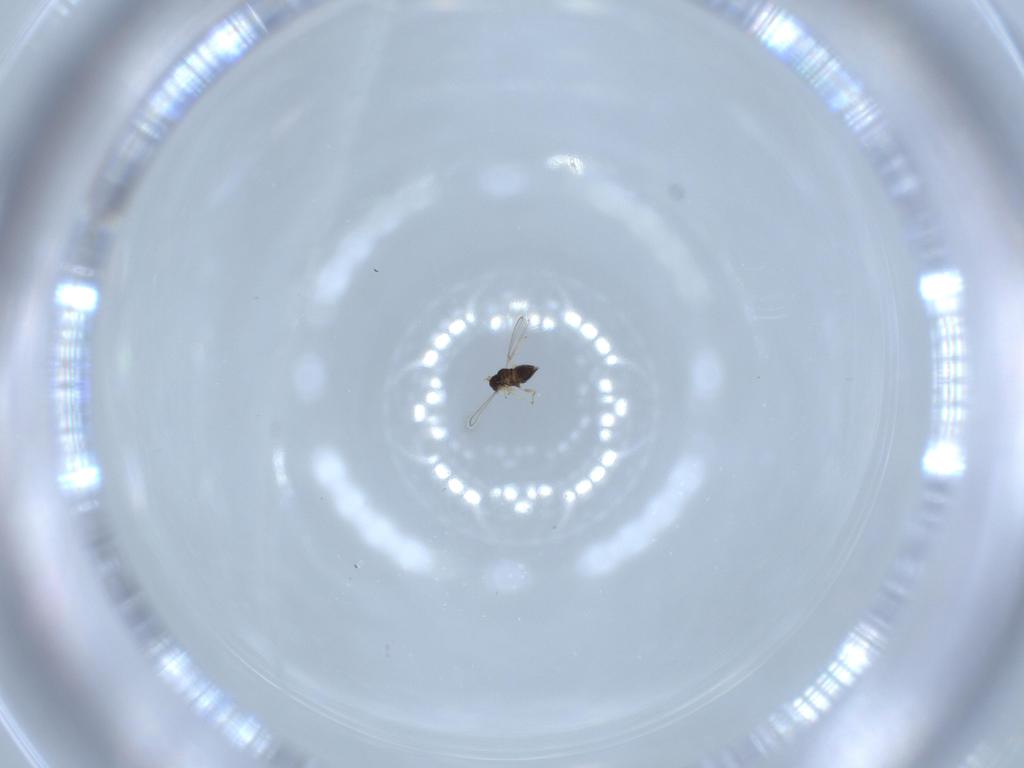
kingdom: Animalia
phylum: Arthropoda
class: Insecta
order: Hymenoptera
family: Mymaridae
